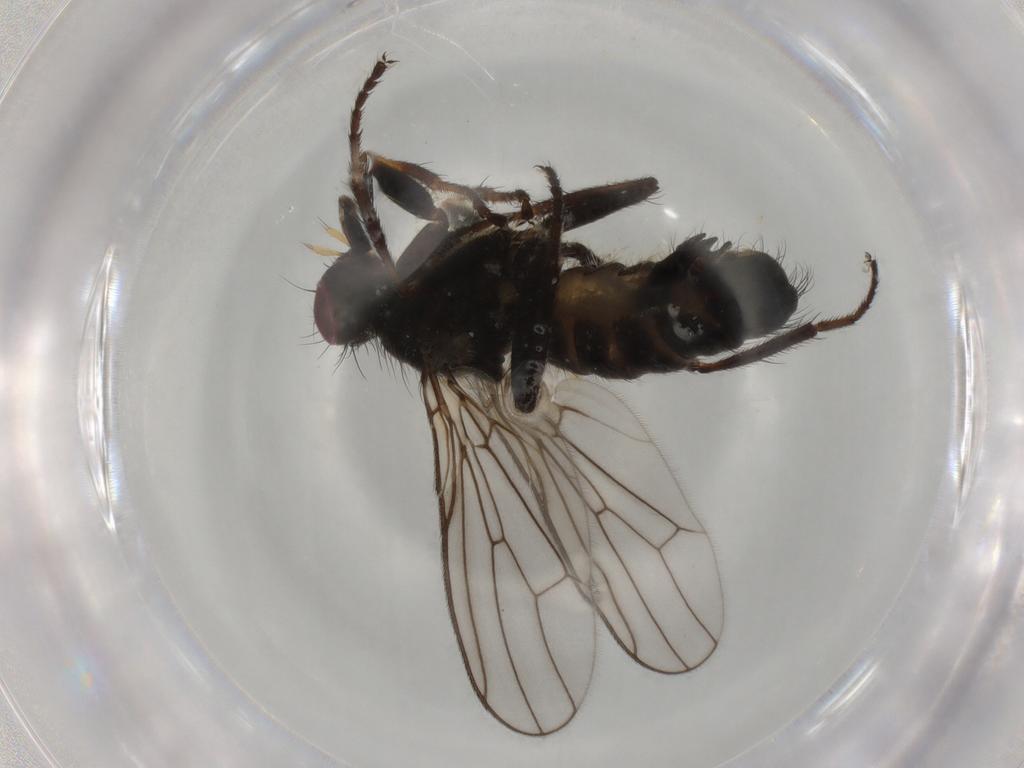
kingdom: Animalia
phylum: Arthropoda
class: Insecta
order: Diptera
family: Scathophagidae
